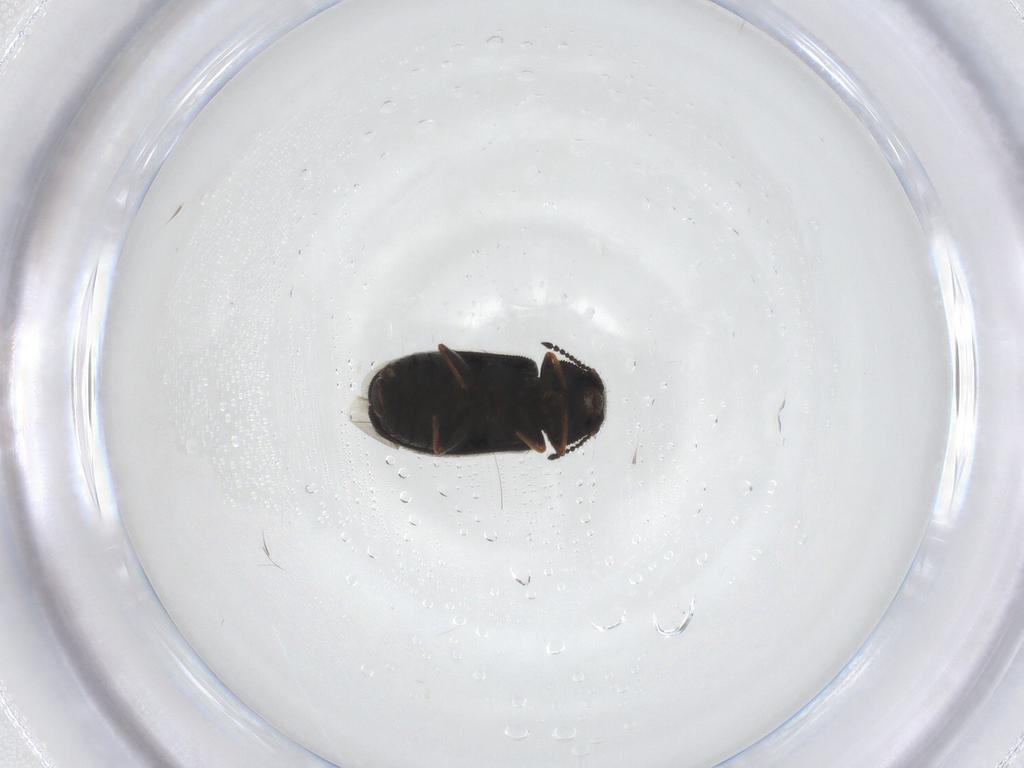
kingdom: Animalia
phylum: Arthropoda
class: Insecta
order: Coleoptera
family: Melyridae
